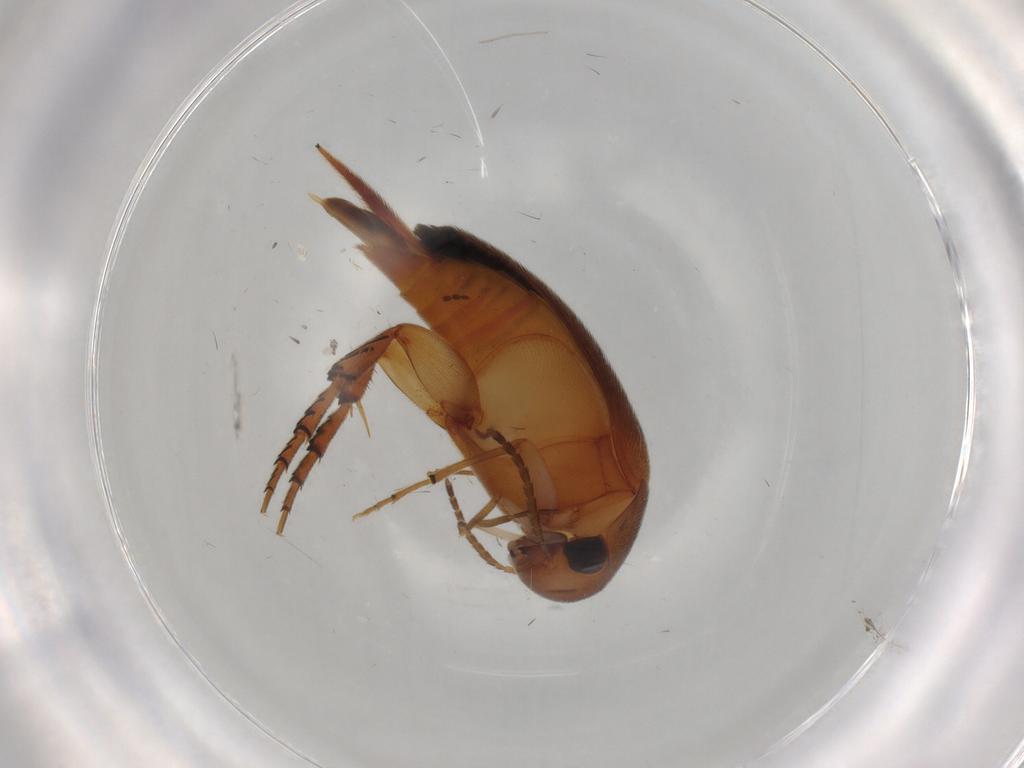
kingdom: Animalia
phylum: Arthropoda
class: Insecta
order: Coleoptera
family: Mordellidae
